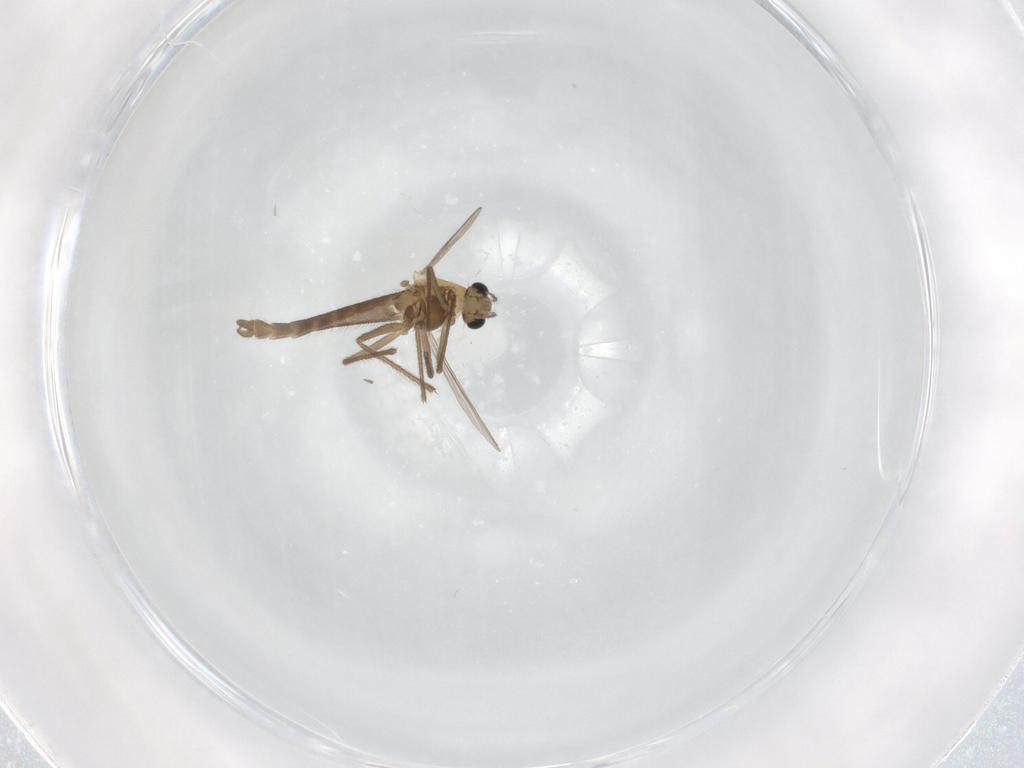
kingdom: Animalia
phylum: Arthropoda
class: Insecta
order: Diptera
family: Chironomidae
